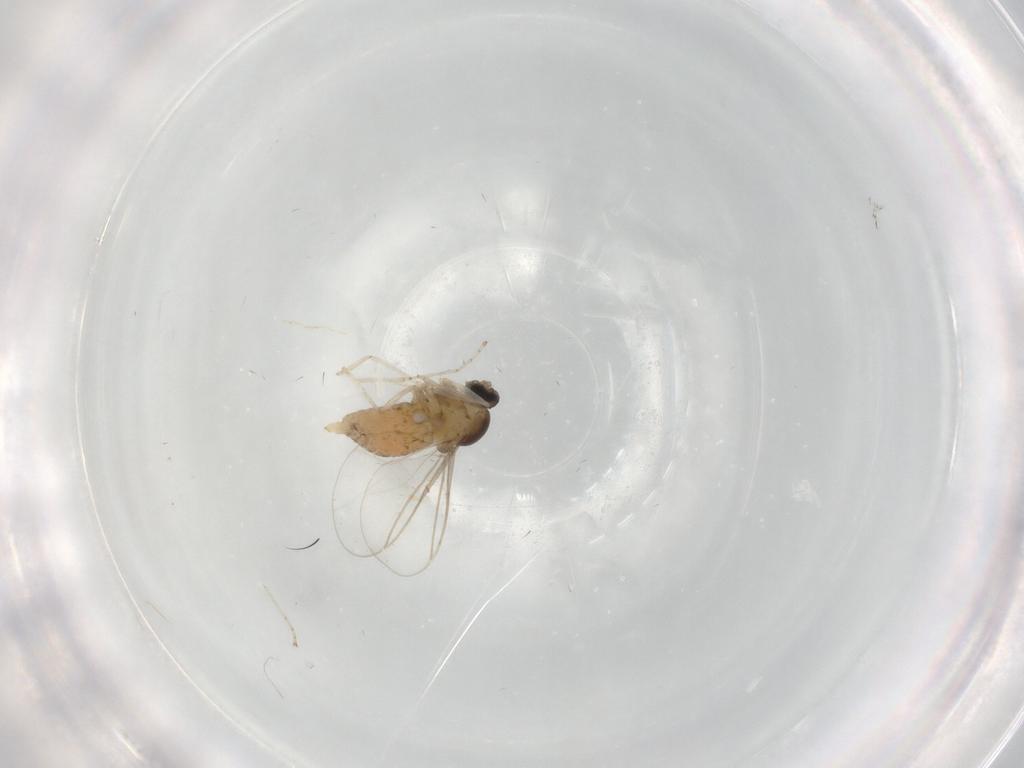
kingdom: Animalia
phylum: Arthropoda
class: Insecta
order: Diptera
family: Cecidomyiidae
